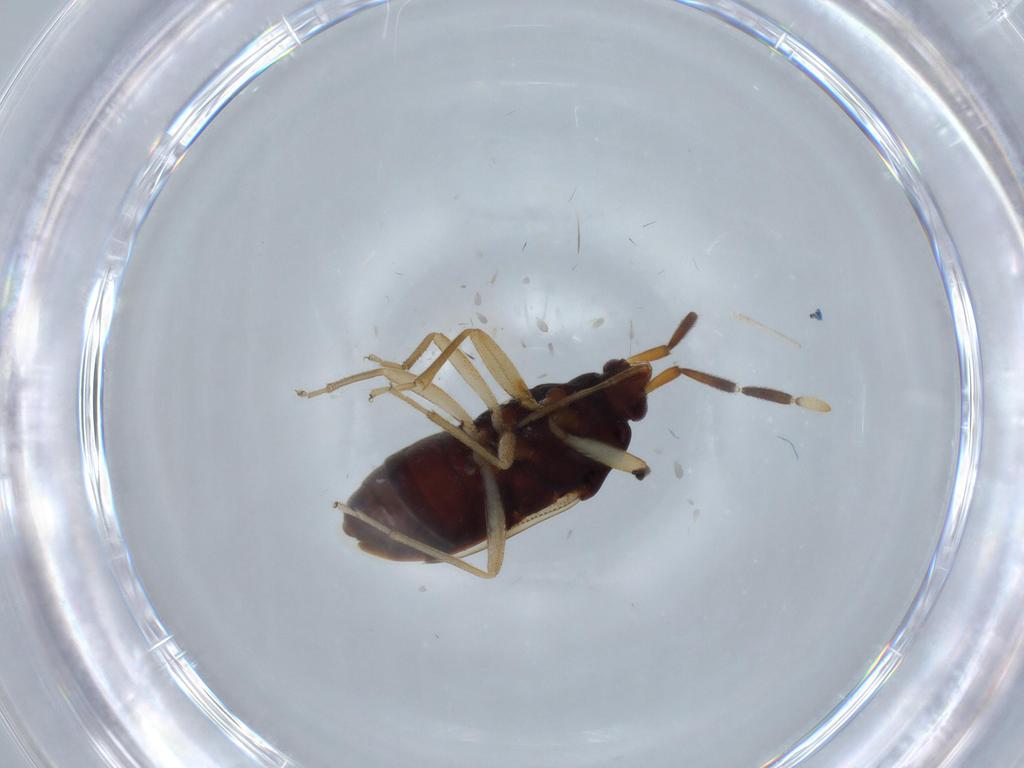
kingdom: Animalia
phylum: Arthropoda
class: Insecta
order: Hemiptera
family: Rhyparochromidae
